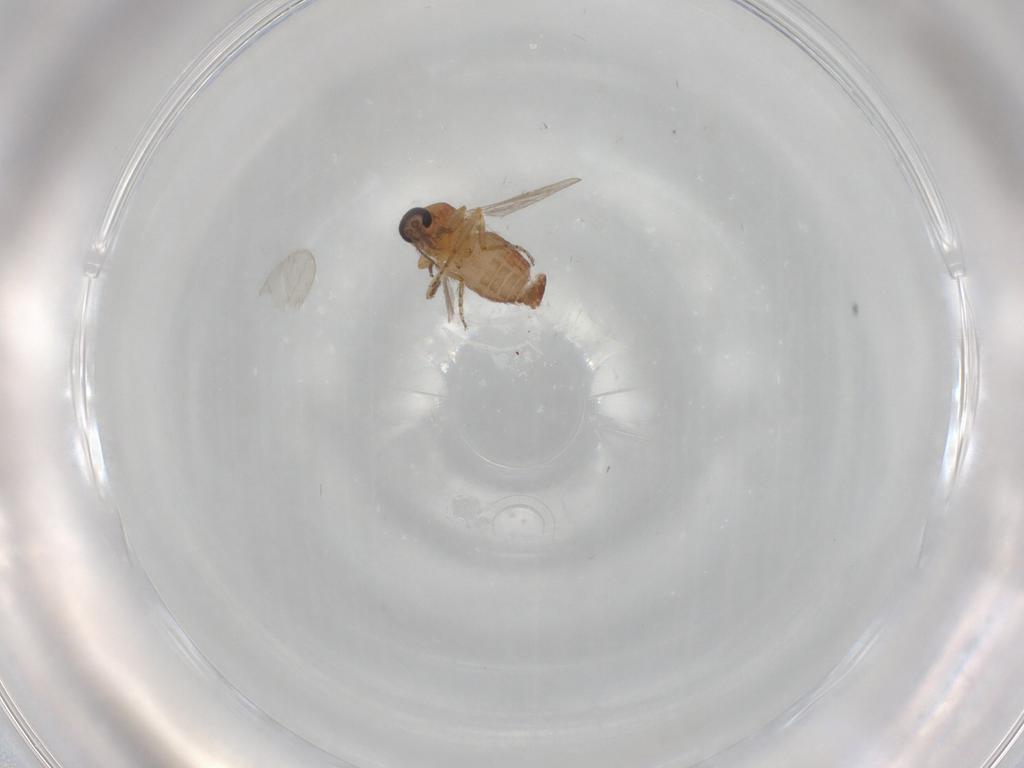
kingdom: Animalia
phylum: Arthropoda
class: Insecta
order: Diptera
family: Ceratopogonidae
